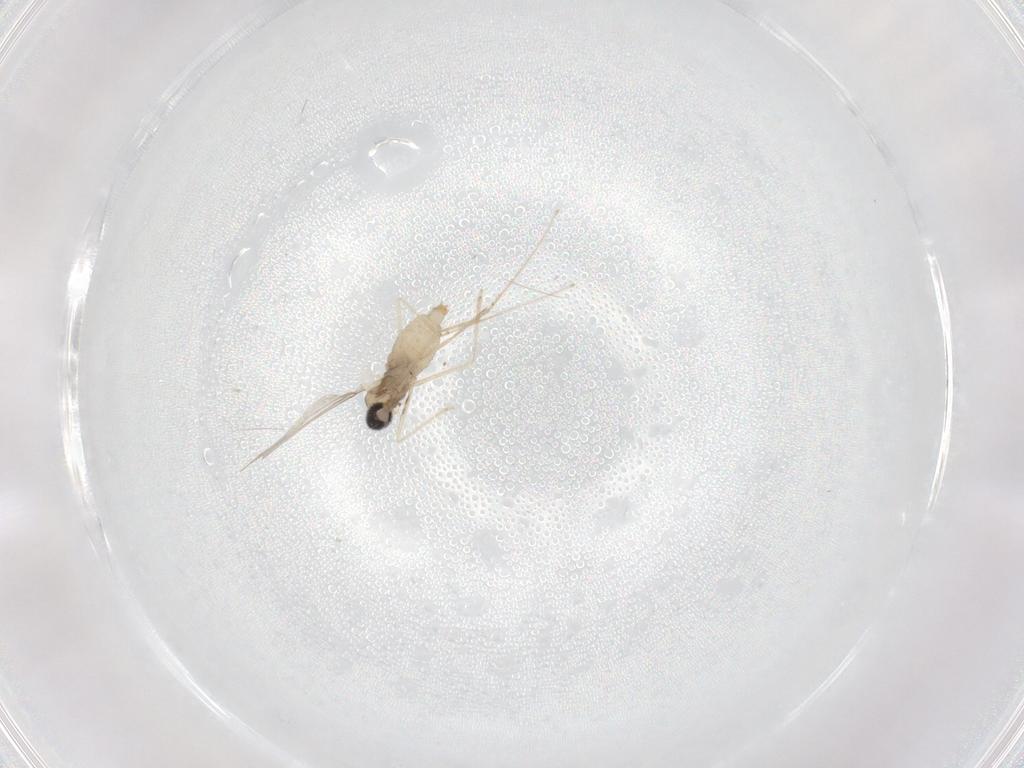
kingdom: Animalia
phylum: Arthropoda
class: Insecta
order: Diptera
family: Cecidomyiidae
